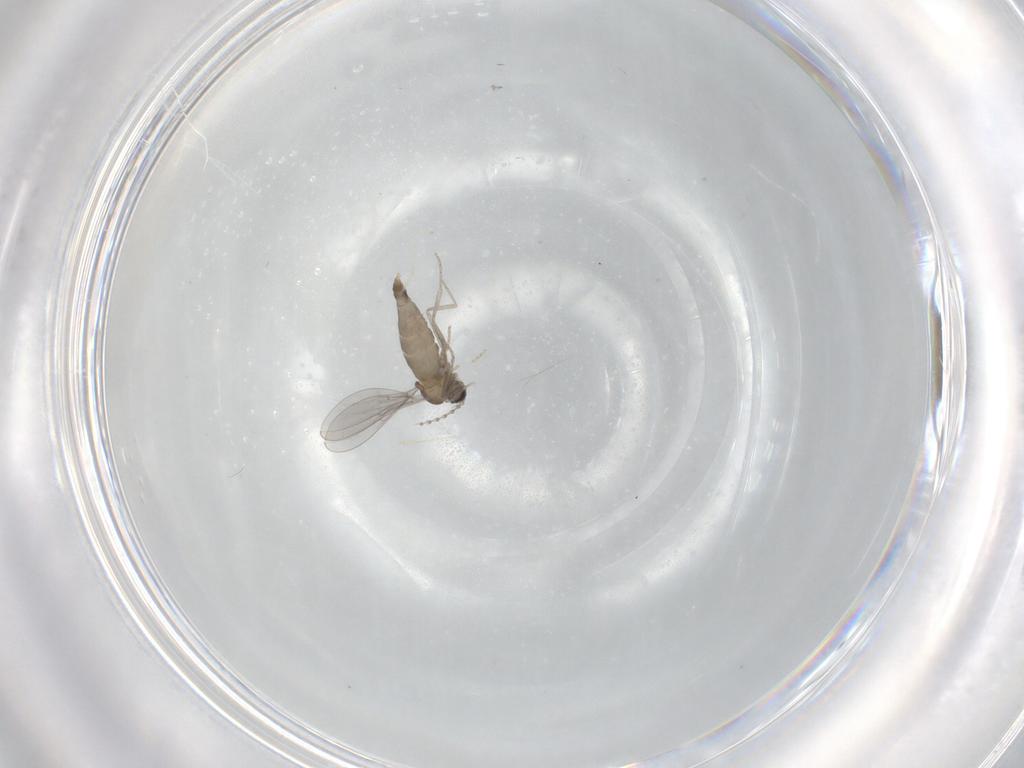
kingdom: Animalia
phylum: Arthropoda
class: Insecta
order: Diptera
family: Cecidomyiidae
